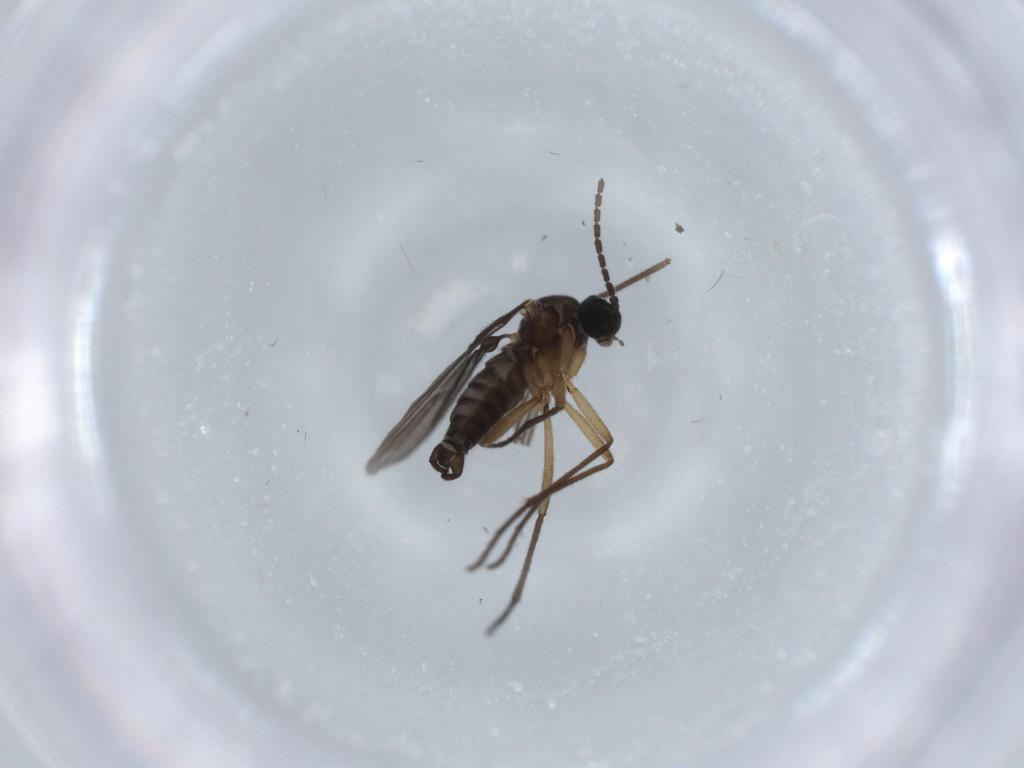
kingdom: Animalia
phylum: Arthropoda
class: Insecta
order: Diptera
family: Sciaridae
